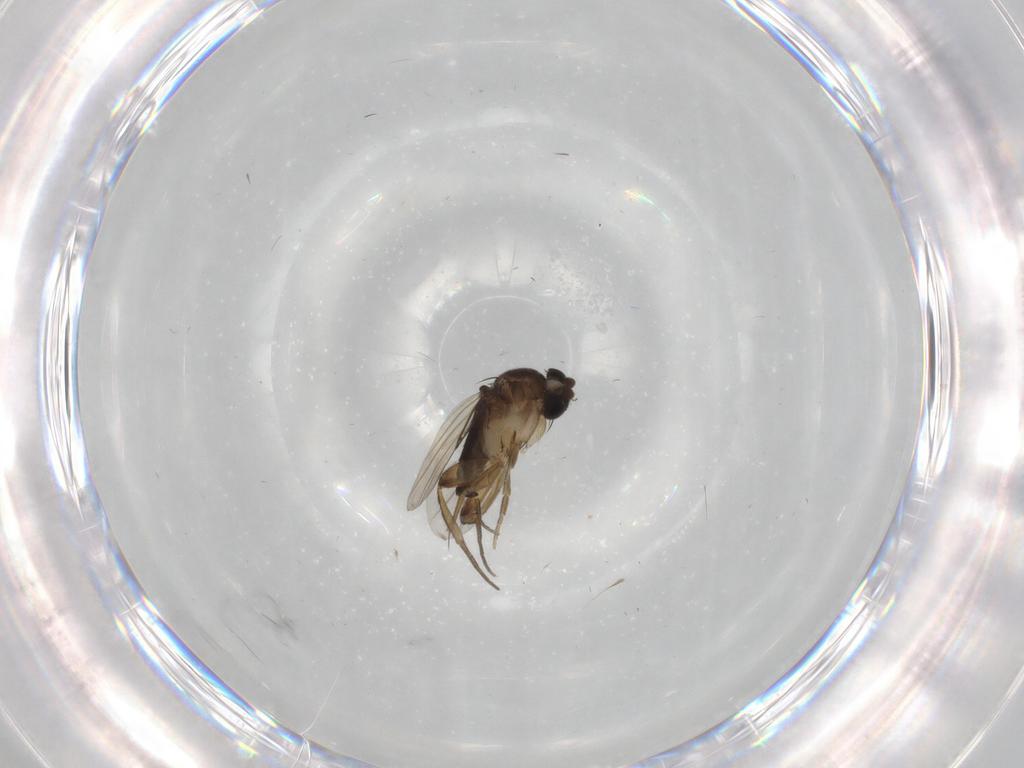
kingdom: Animalia
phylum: Arthropoda
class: Insecta
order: Diptera
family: Phoridae
